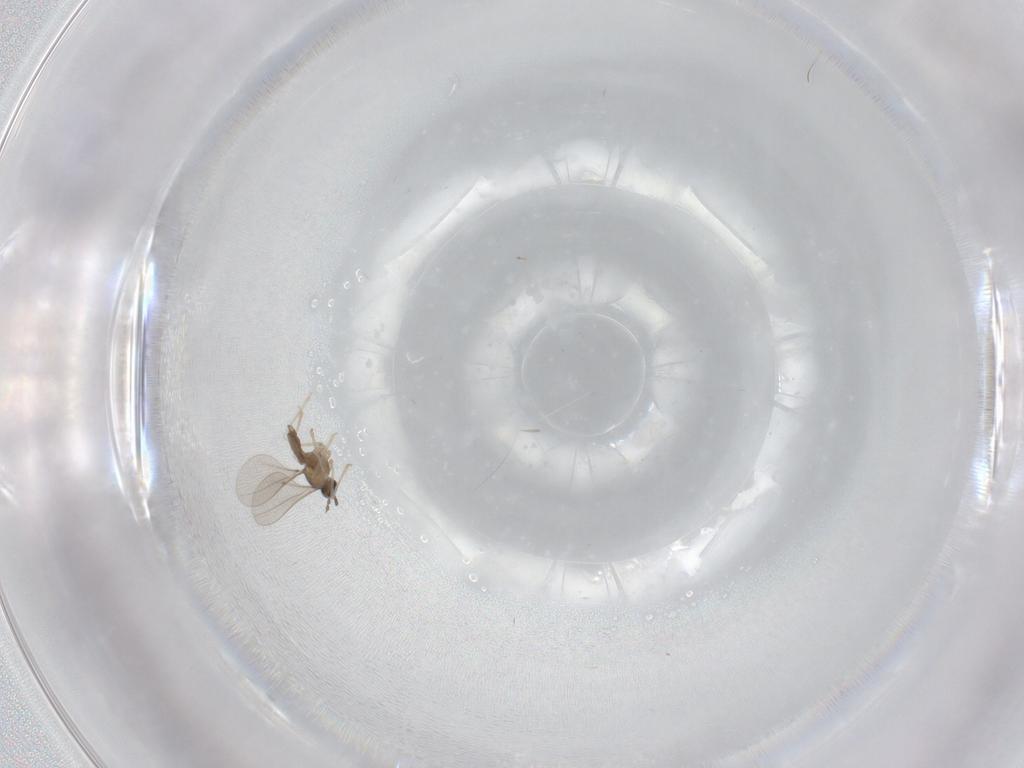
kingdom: Animalia
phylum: Arthropoda
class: Insecta
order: Diptera
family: Cecidomyiidae
